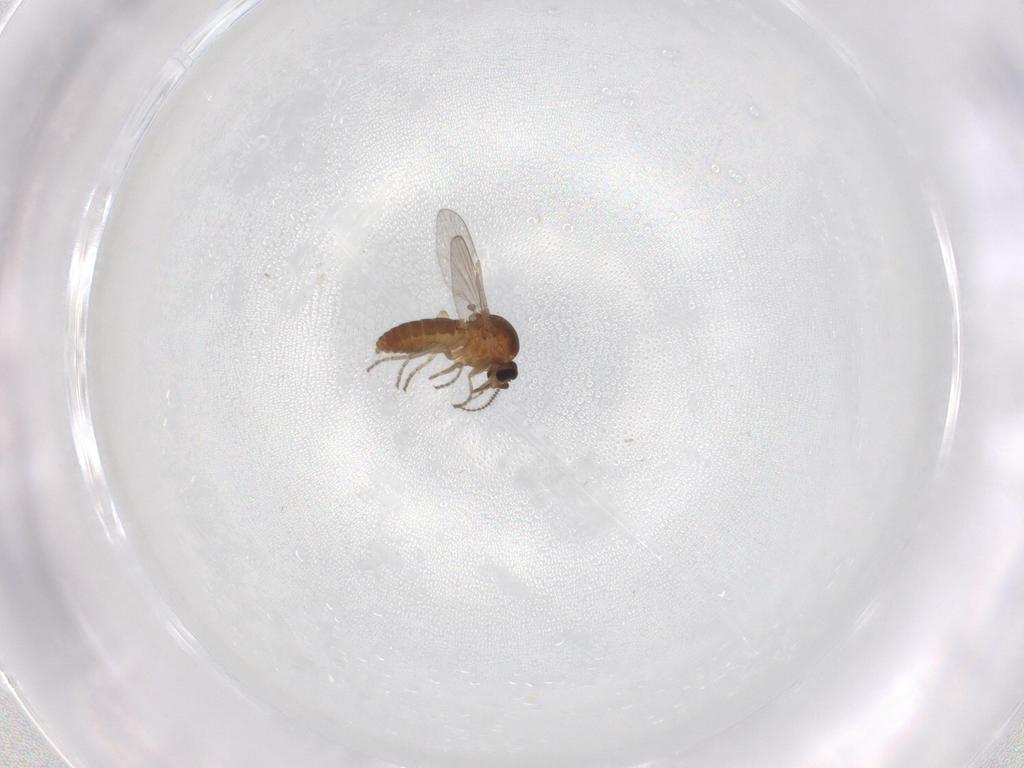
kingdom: Animalia
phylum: Arthropoda
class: Insecta
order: Diptera
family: Ceratopogonidae
